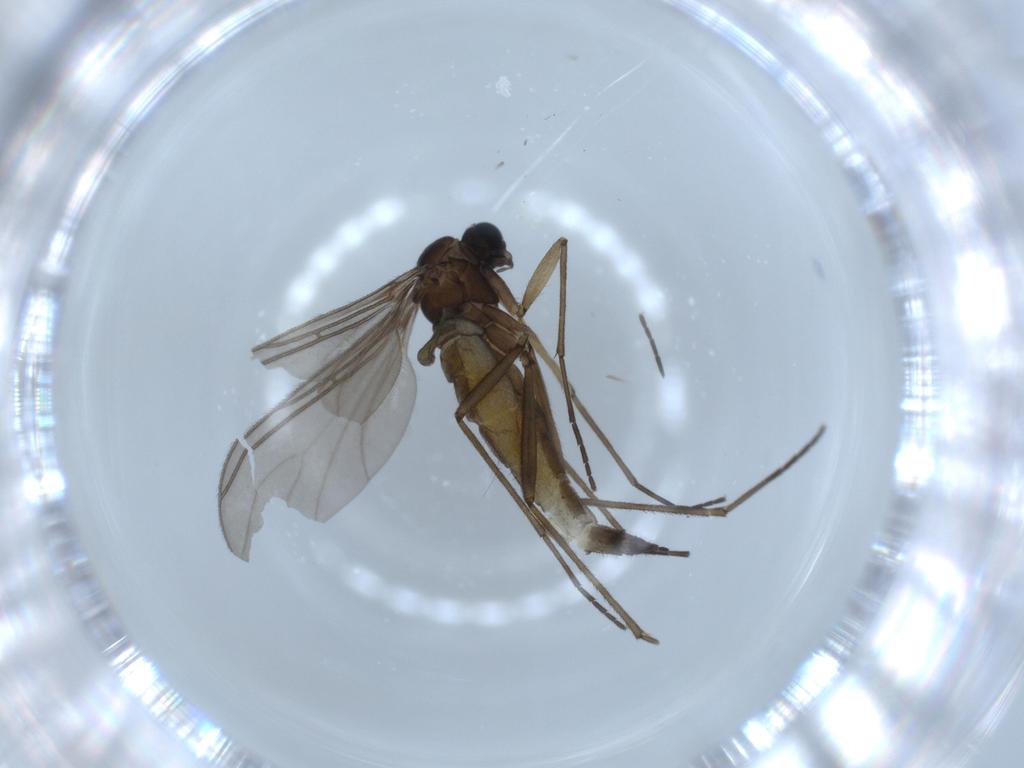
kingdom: Animalia
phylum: Arthropoda
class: Insecta
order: Diptera
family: Sciaridae
